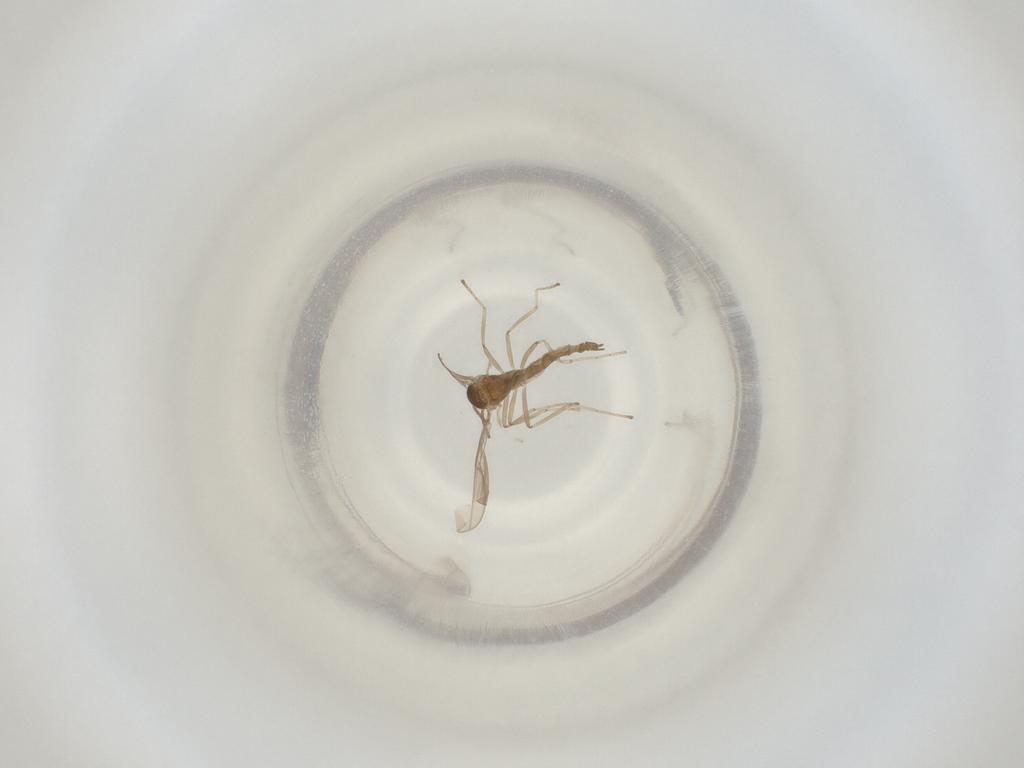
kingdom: Animalia
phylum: Arthropoda
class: Insecta
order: Diptera
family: Cecidomyiidae
